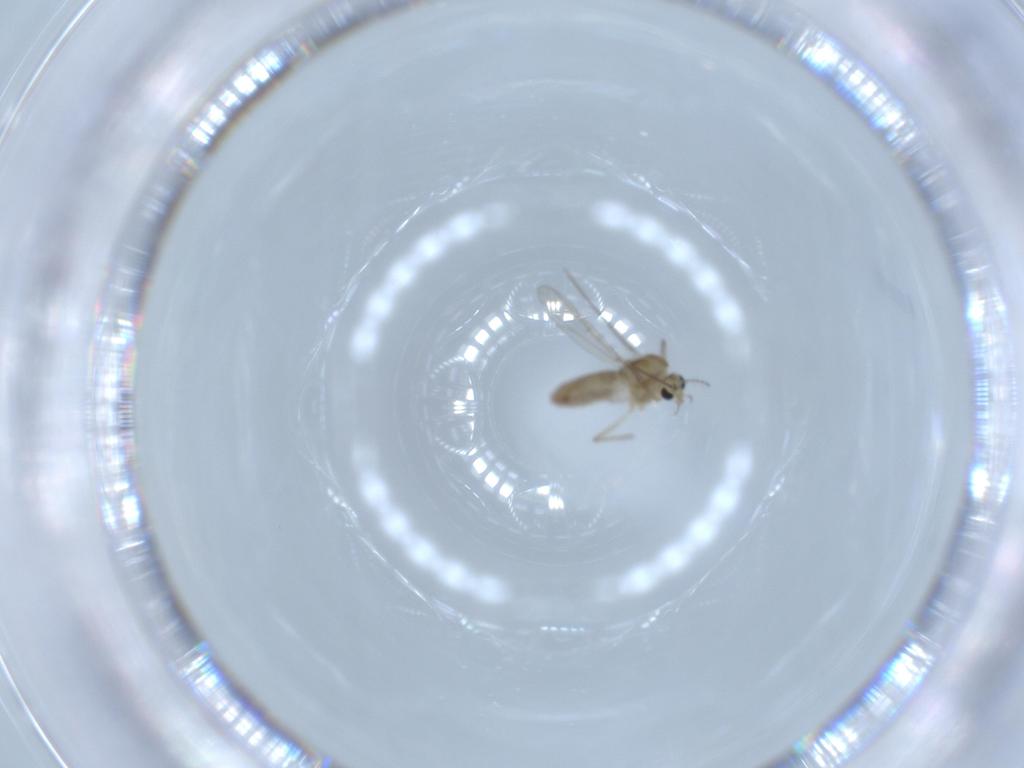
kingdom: Animalia
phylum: Arthropoda
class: Insecta
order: Diptera
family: Chironomidae
